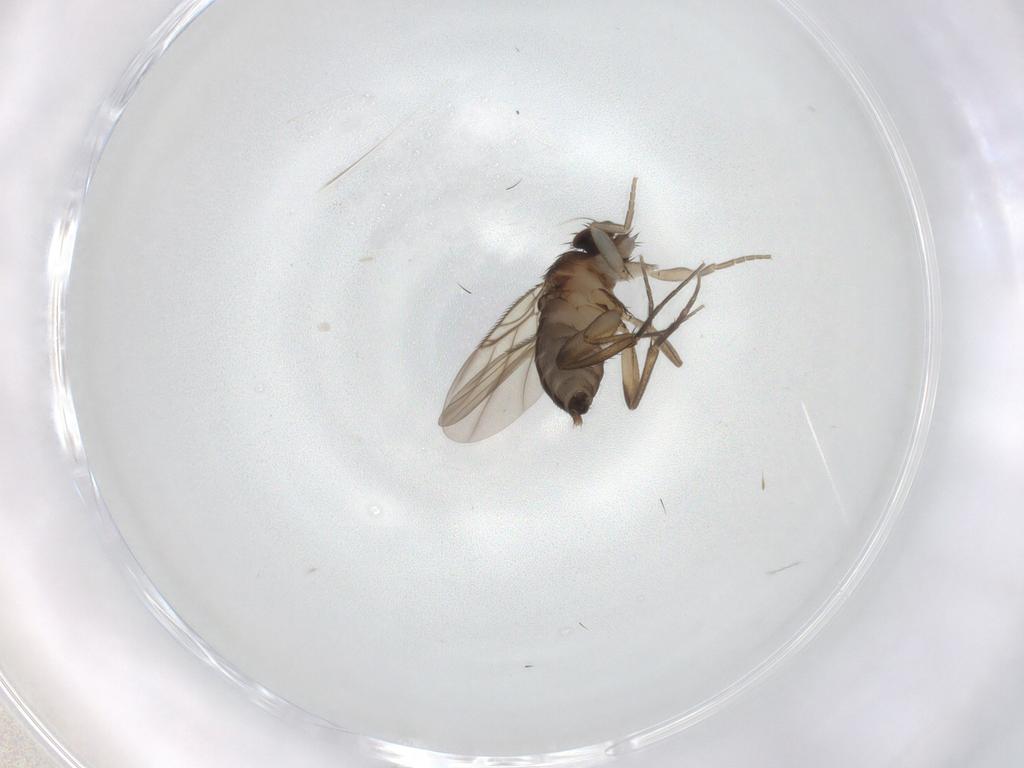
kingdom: Animalia
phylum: Arthropoda
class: Insecta
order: Diptera
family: Phoridae
